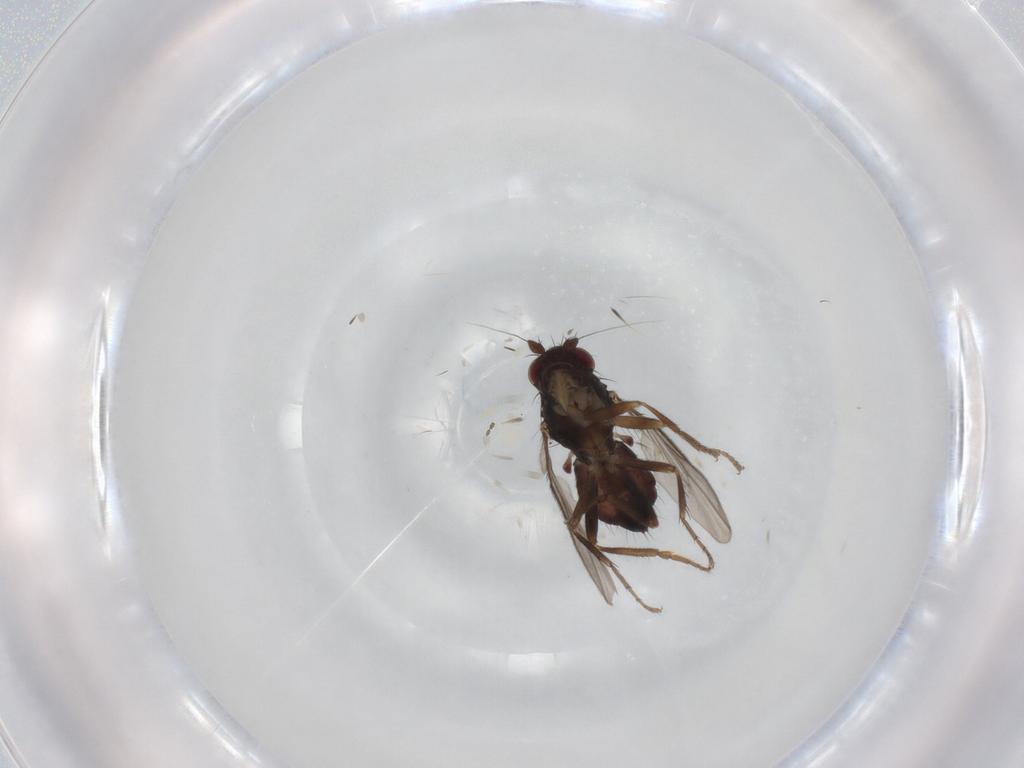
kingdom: Animalia
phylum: Arthropoda
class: Insecta
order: Diptera
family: Sphaeroceridae
